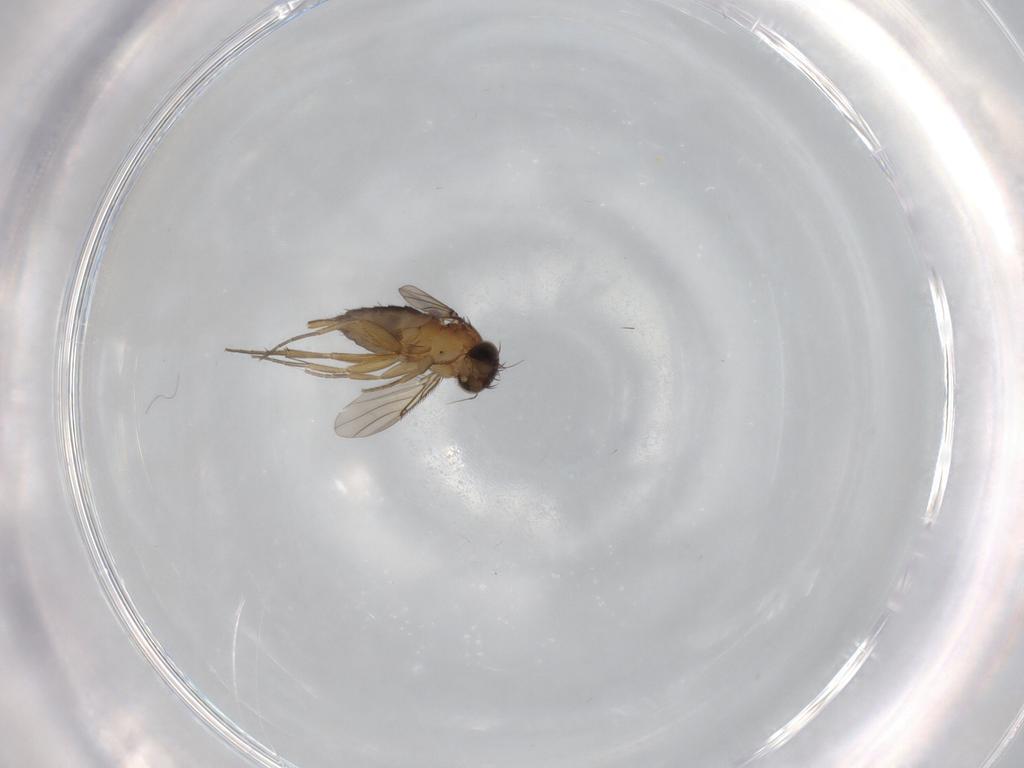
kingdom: Animalia
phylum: Arthropoda
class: Insecta
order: Diptera
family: Phoridae
